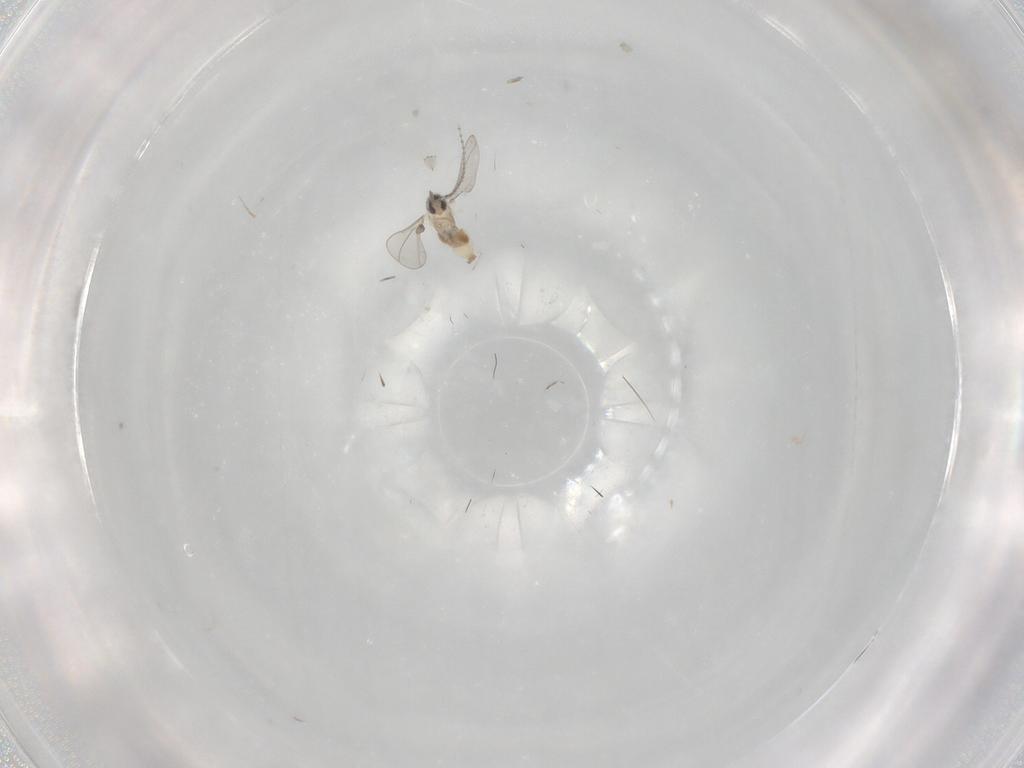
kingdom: Animalia
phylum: Arthropoda
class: Insecta
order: Diptera
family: Cecidomyiidae
